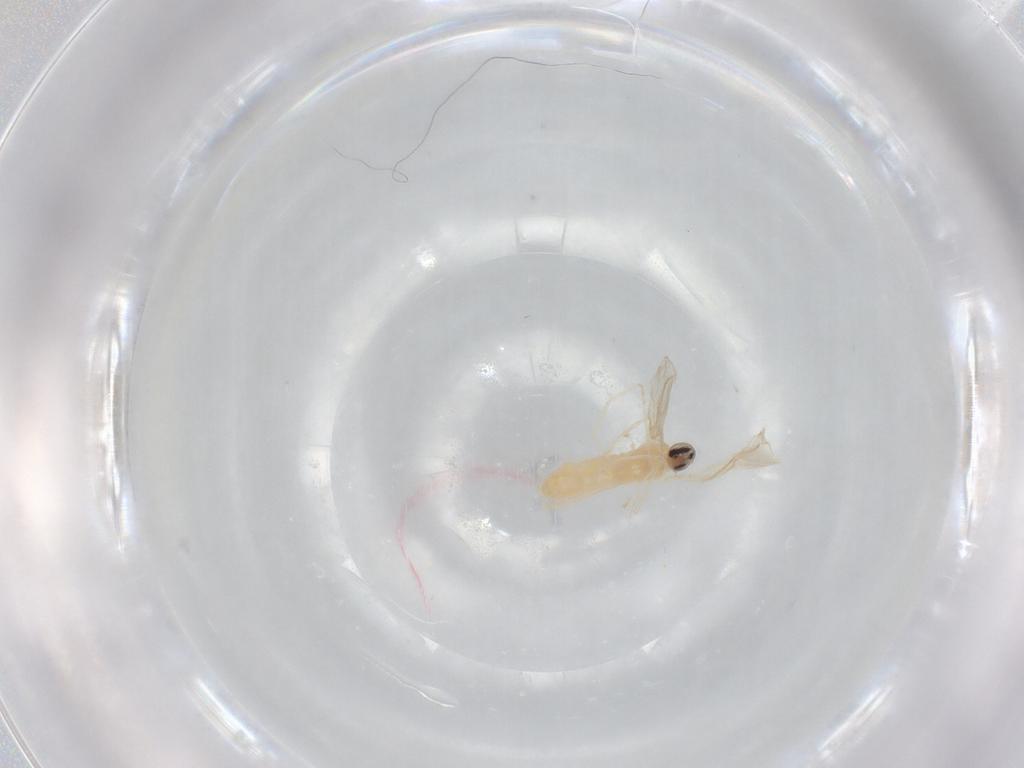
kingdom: Animalia
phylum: Arthropoda
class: Insecta
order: Diptera
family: Cecidomyiidae
